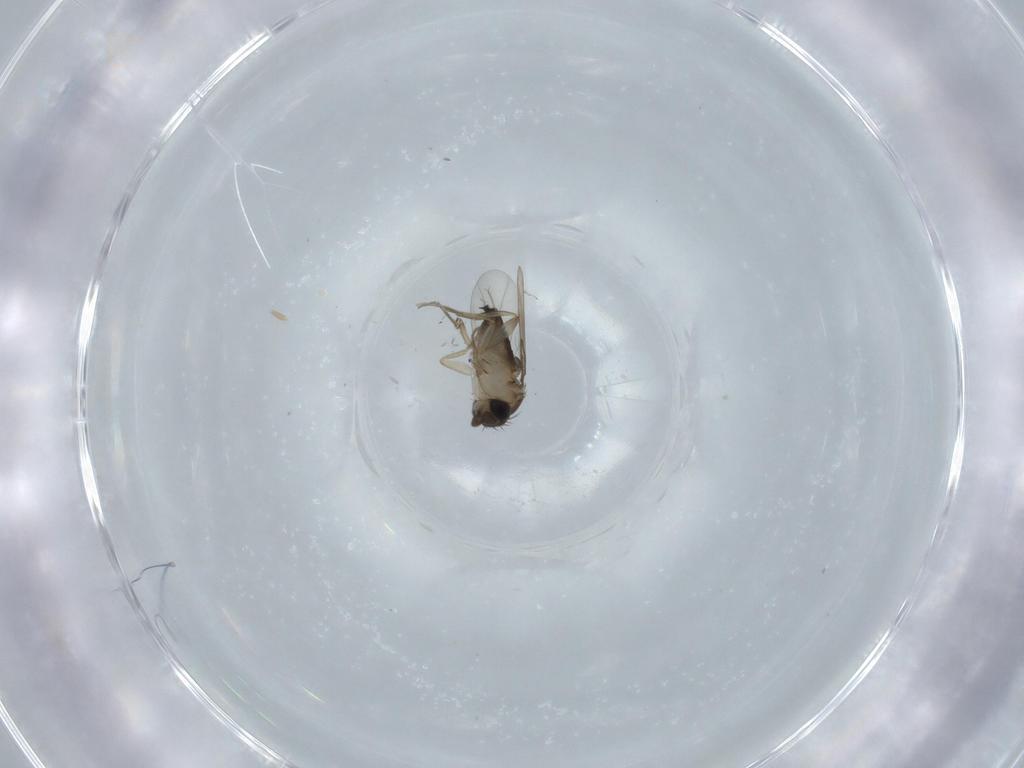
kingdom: Animalia
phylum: Arthropoda
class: Insecta
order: Diptera
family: Phoridae
